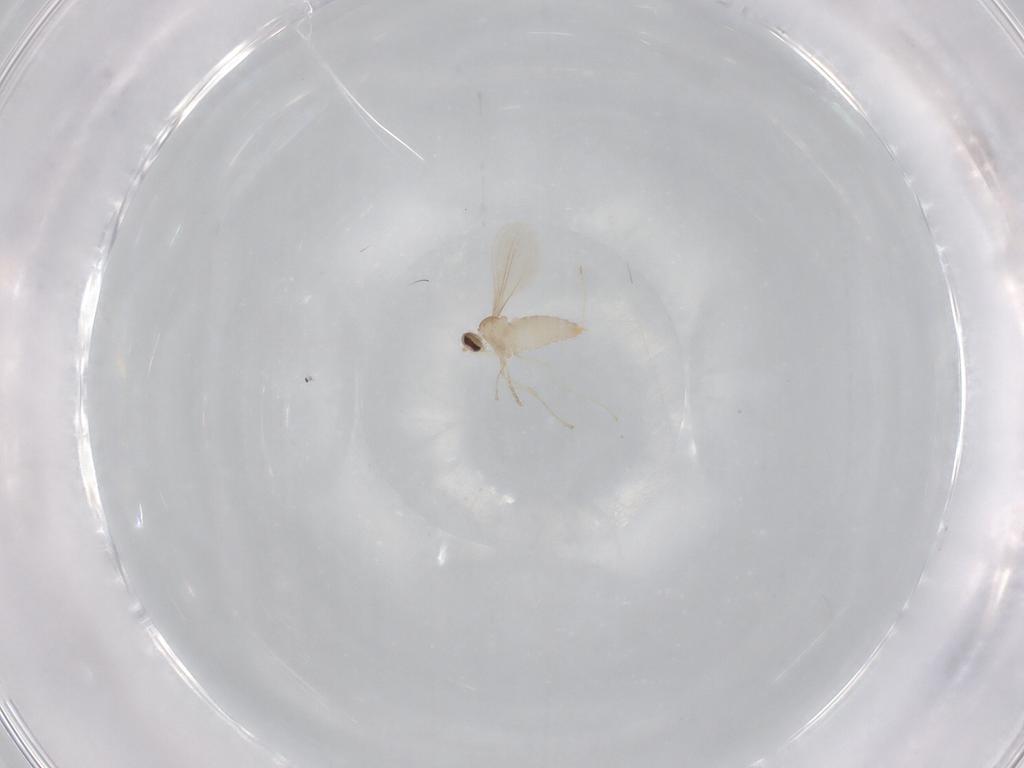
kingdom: Animalia
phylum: Arthropoda
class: Insecta
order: Diptera
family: Cecidomyiidae
